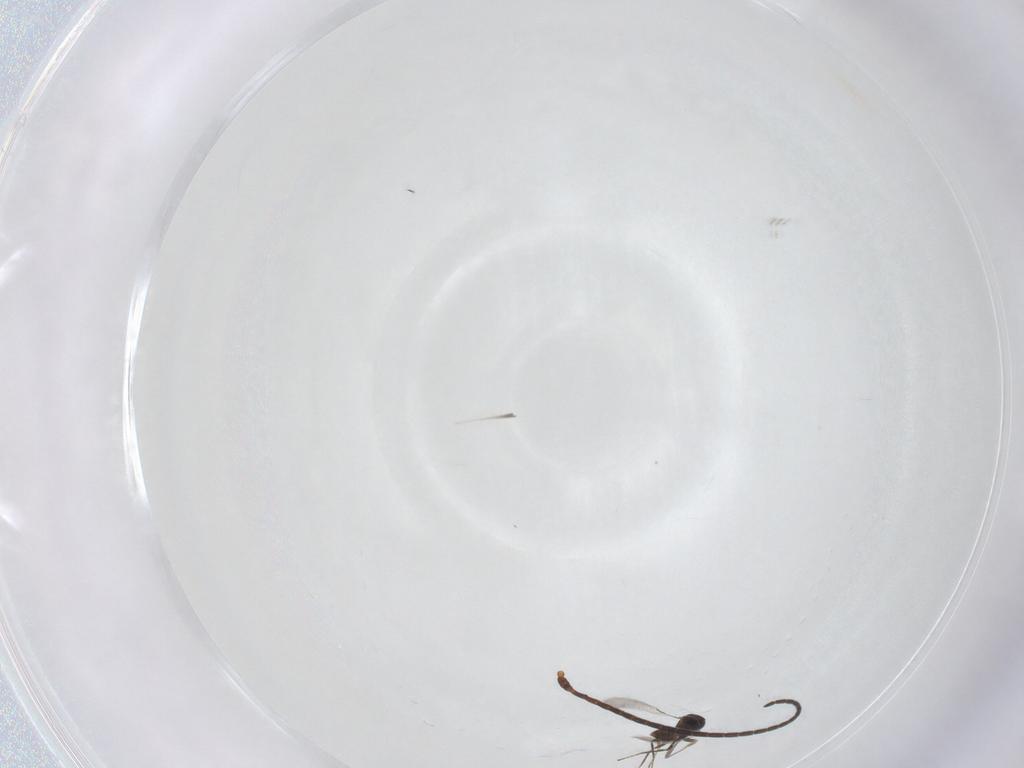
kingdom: Animalia
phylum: Arthropoda
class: Insecta
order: Hymenoptera
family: Braconidae
